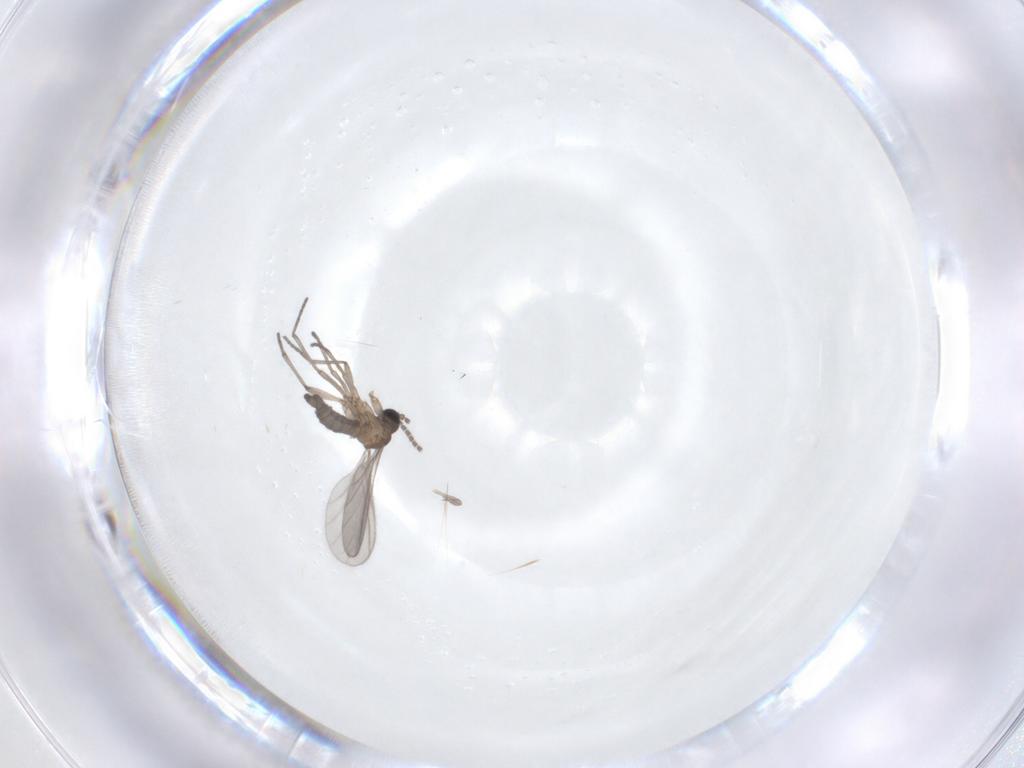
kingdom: Animalia
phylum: Arthropoda
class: Insecta
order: Diptera
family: Sciaridae
